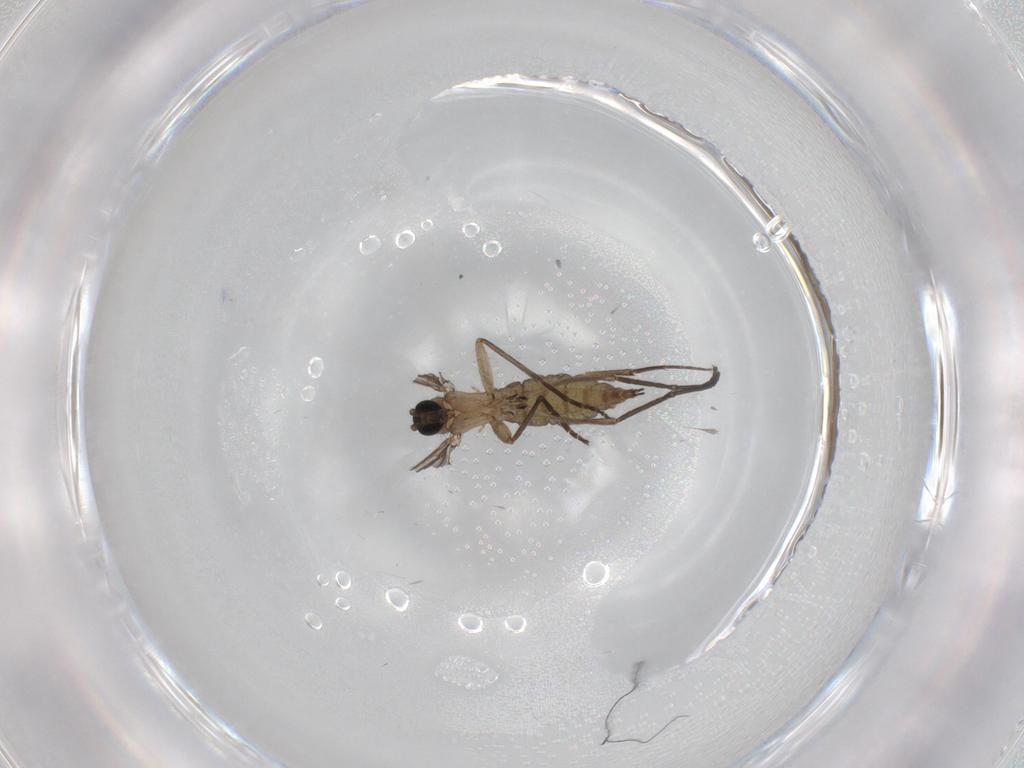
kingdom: Animalia
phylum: Arthropoda
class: Insecta
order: Diptera
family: Sciaridae
